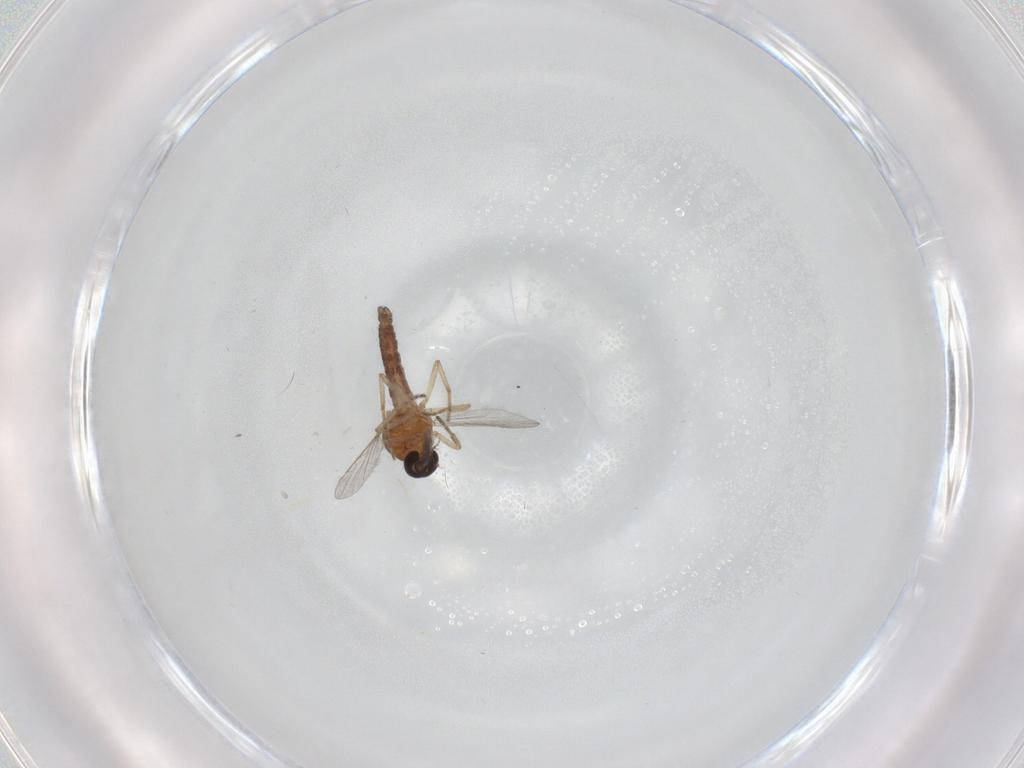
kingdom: Animalia
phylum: Arthropoda
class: Insecta
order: Diptera
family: Ceratopogonidae
